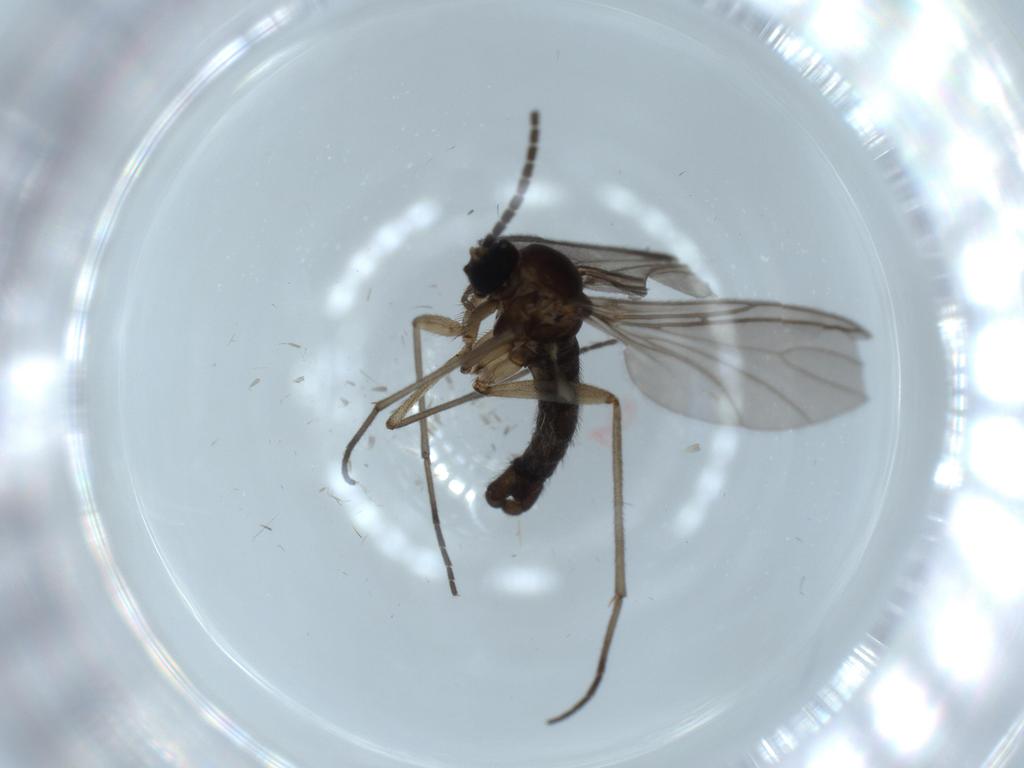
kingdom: Animalia
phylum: Arthropoda
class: Insecta
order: Diptera
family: Sciaridae
